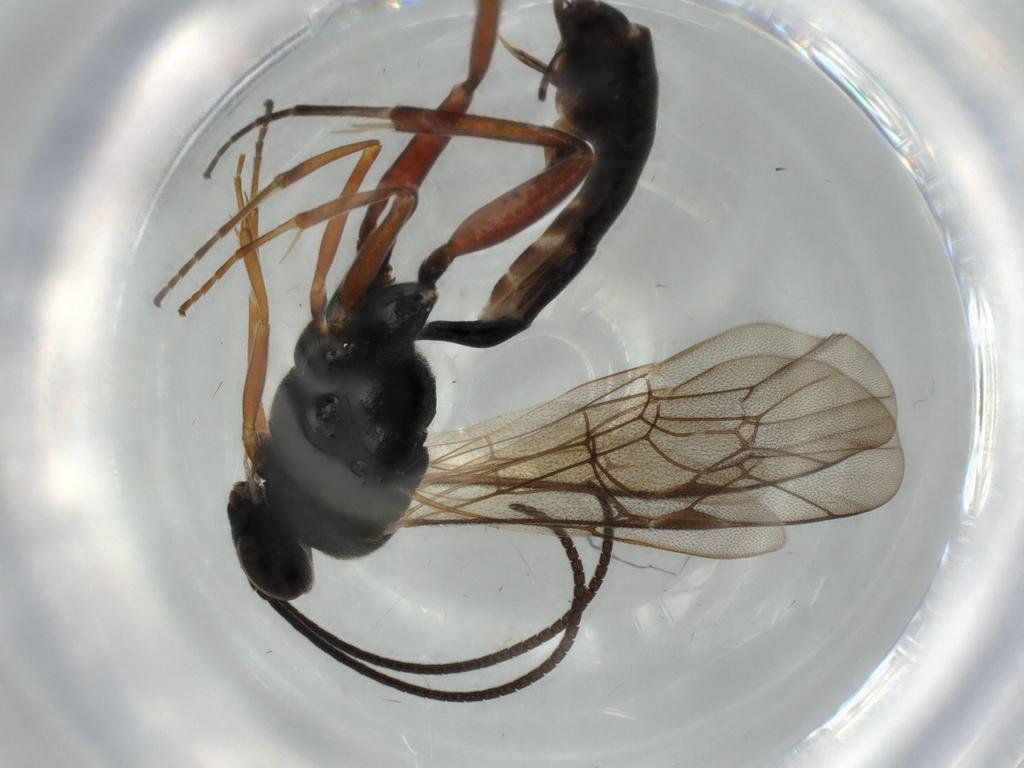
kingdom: Animalia
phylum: Arthropoda
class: Insecta
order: Hymenoptera
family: Ichneumonidae
